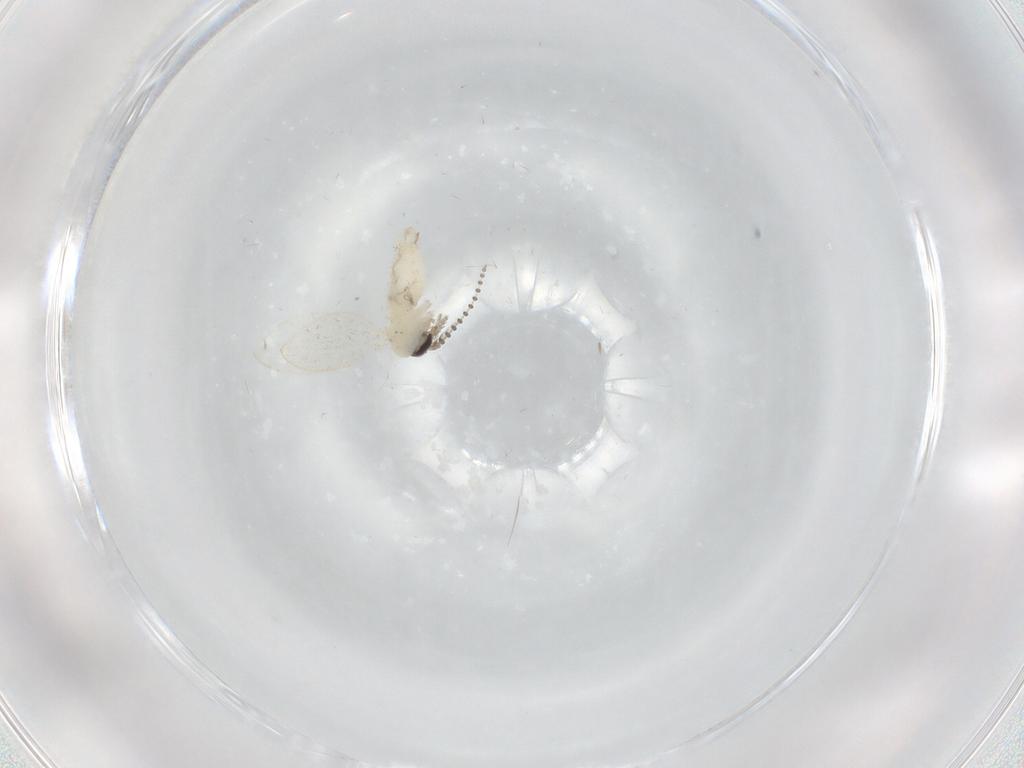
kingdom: Animalia
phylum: Arthropoda
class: Insecta
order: Diptera
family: Psychodidae
